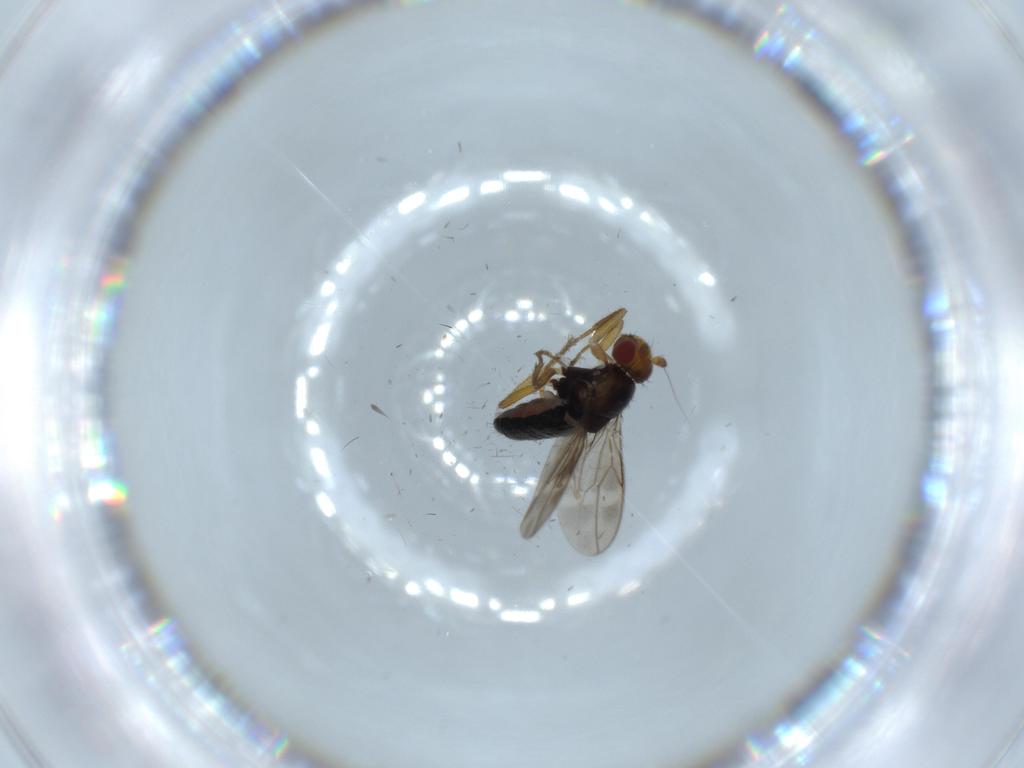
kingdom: Animalia
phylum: Arthropoda
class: Insecta
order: Diptera
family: Sphaeroceridae
